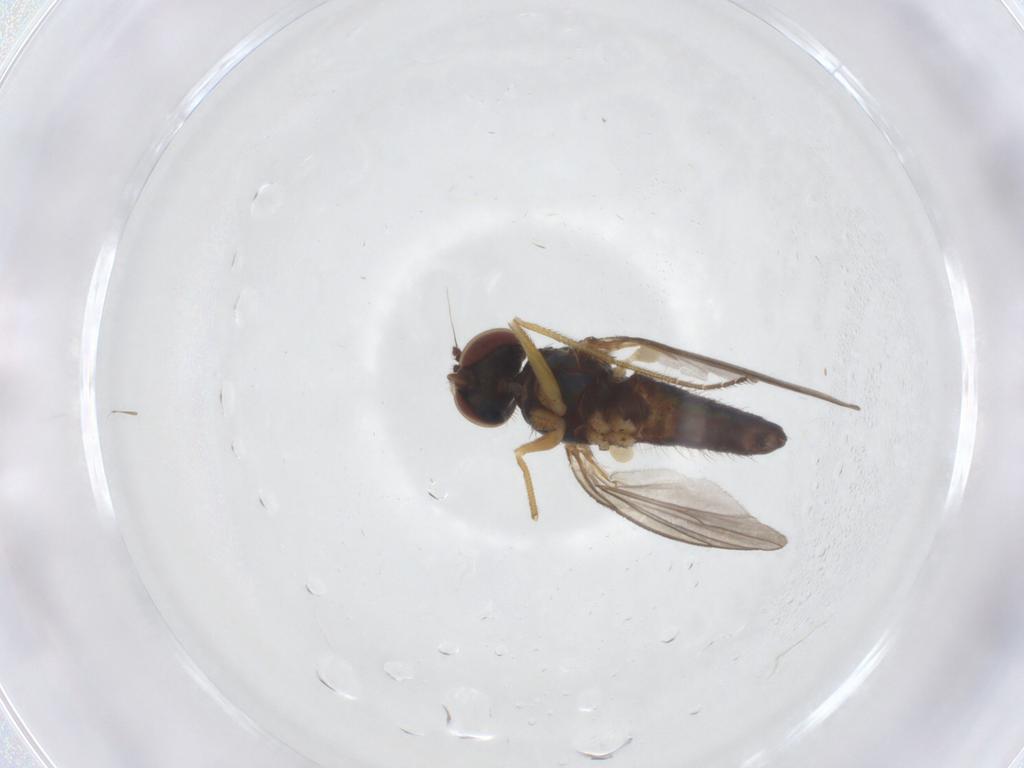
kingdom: Animalia
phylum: Arthropoda
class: Insecta
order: Diptera
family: Dolichopodidae
